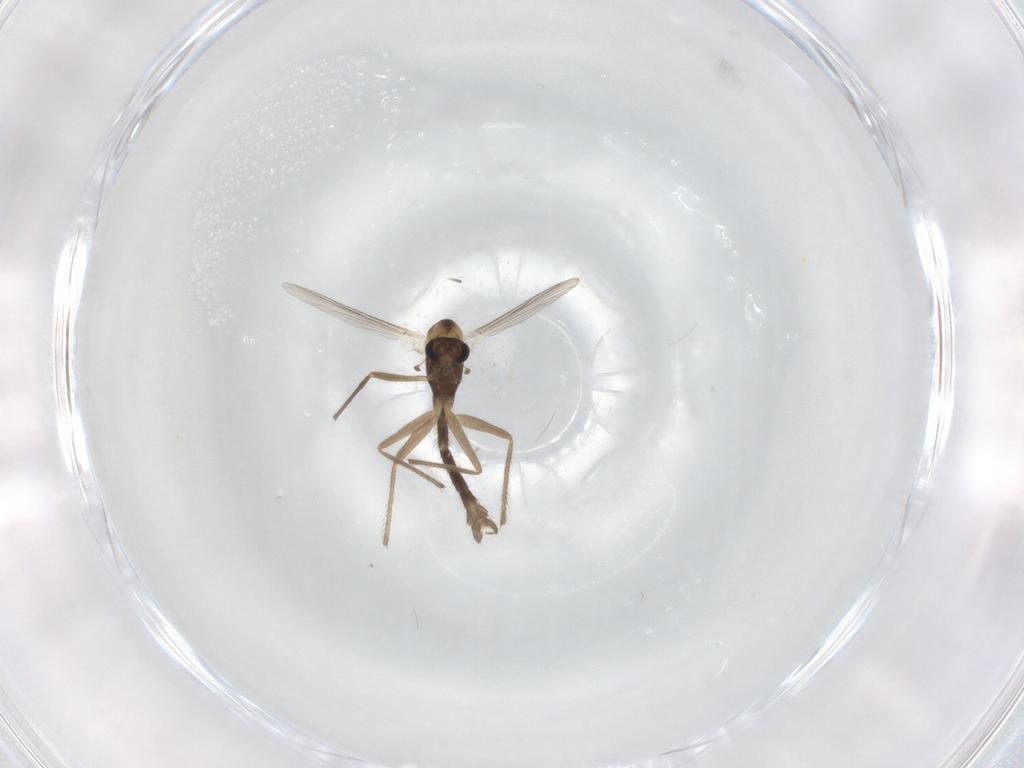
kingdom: Animalia
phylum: Arthropoda
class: Insecta
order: Diptera
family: Chironomidae
